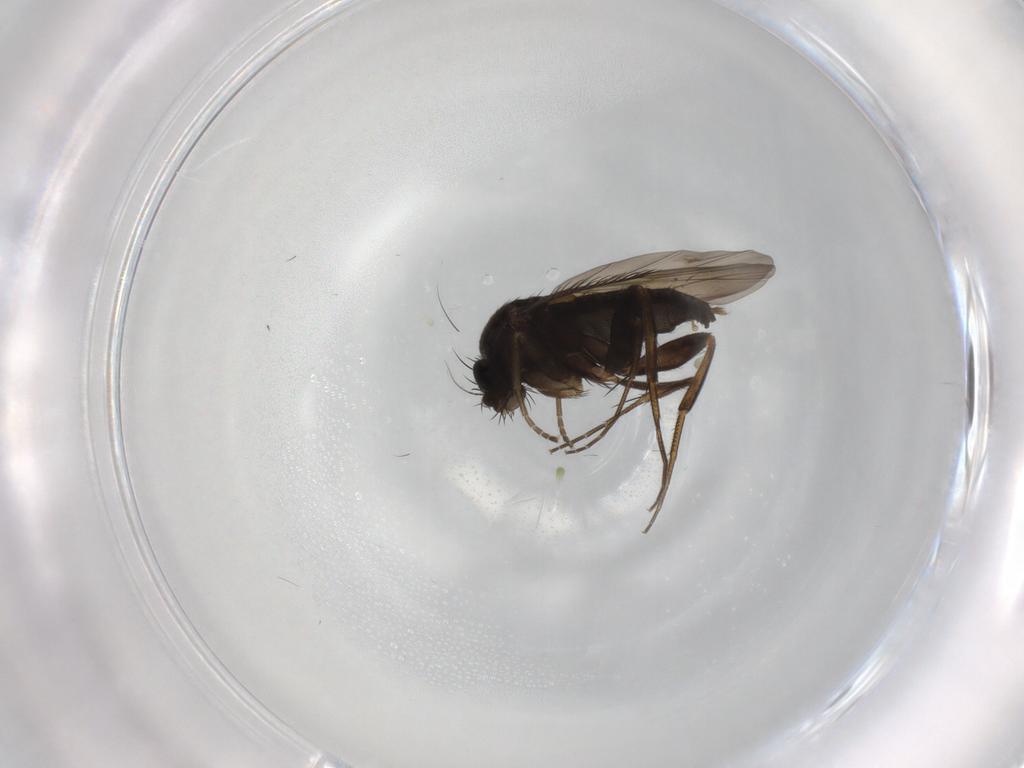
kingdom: Animalia
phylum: Arthropoda
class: Insecta
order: Diptera
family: Phoridae
